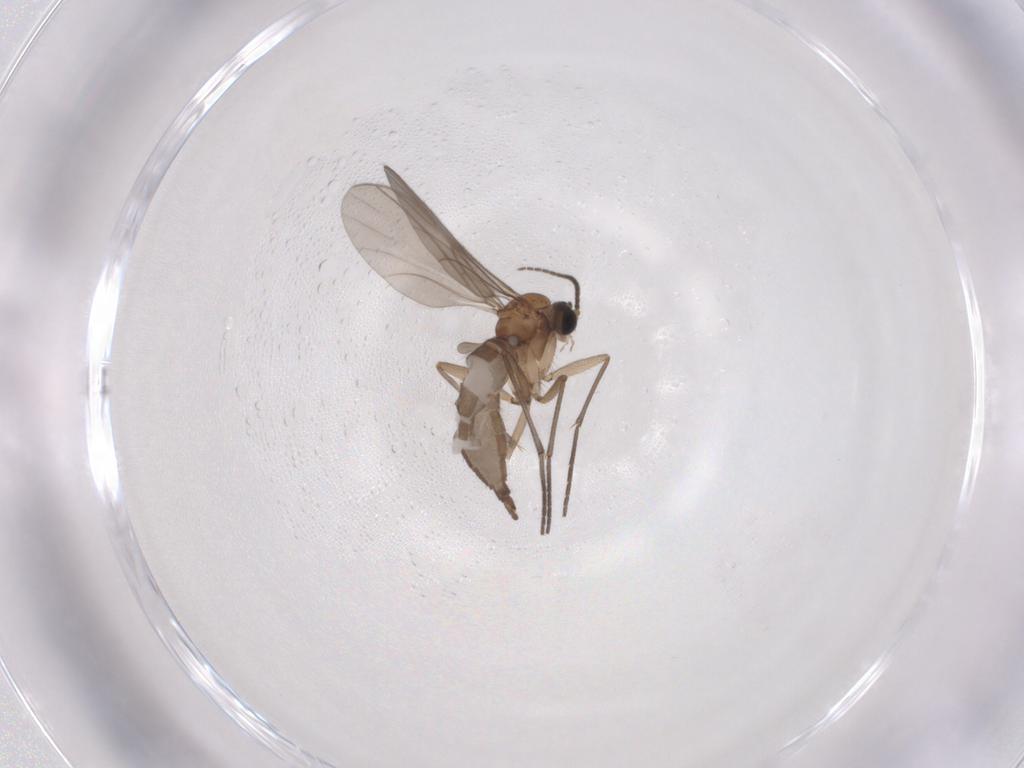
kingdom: Animalia
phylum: Arthropoda
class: Insecta
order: Diptera
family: Sciaridae
